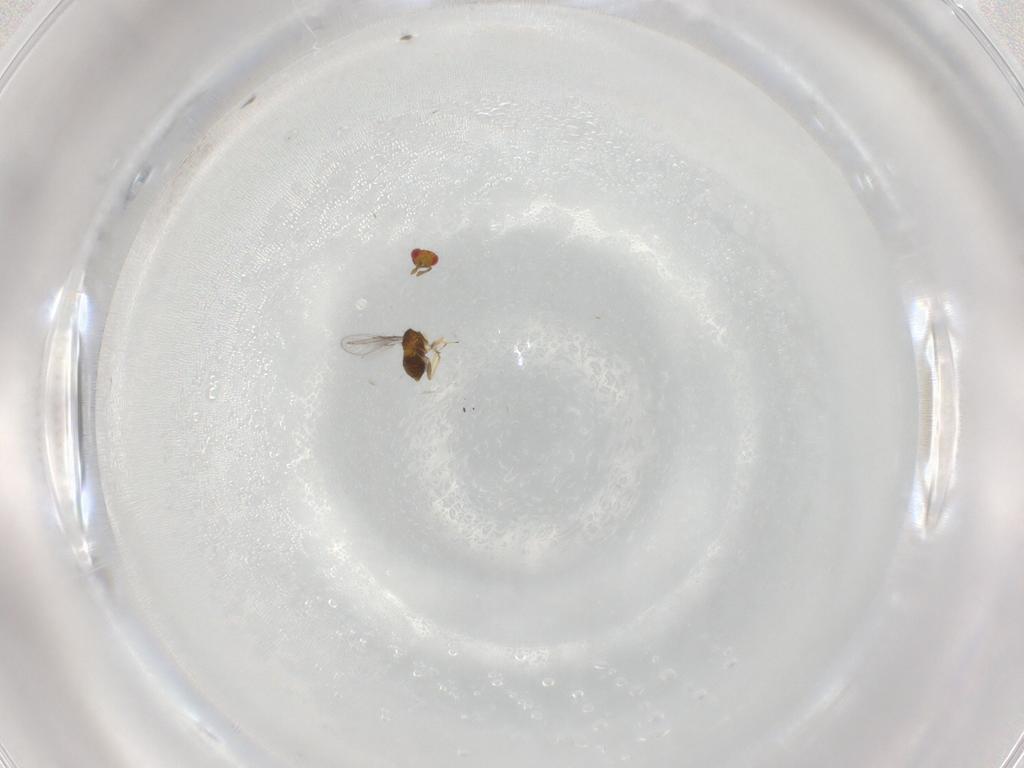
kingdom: Animalia
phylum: Arthropoda
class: Insecta
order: Hymenoptera
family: Trichogrammatidae
